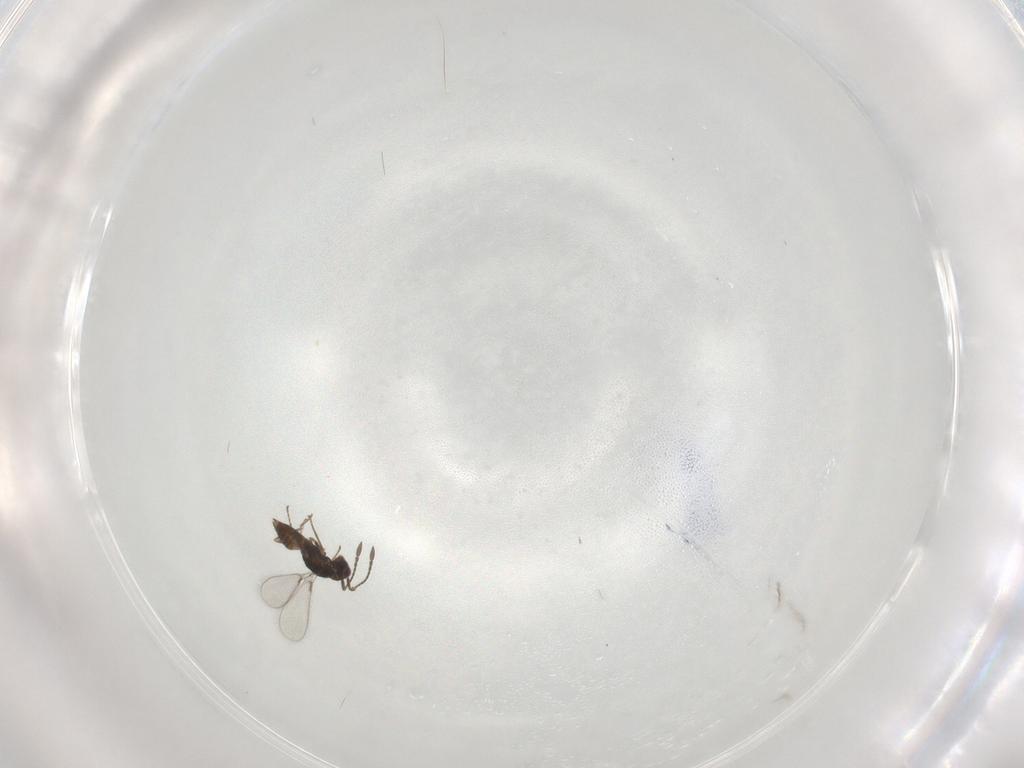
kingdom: Animalia
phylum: Arthropoda
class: Insecta
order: Hymenoptera
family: Mymaridae
